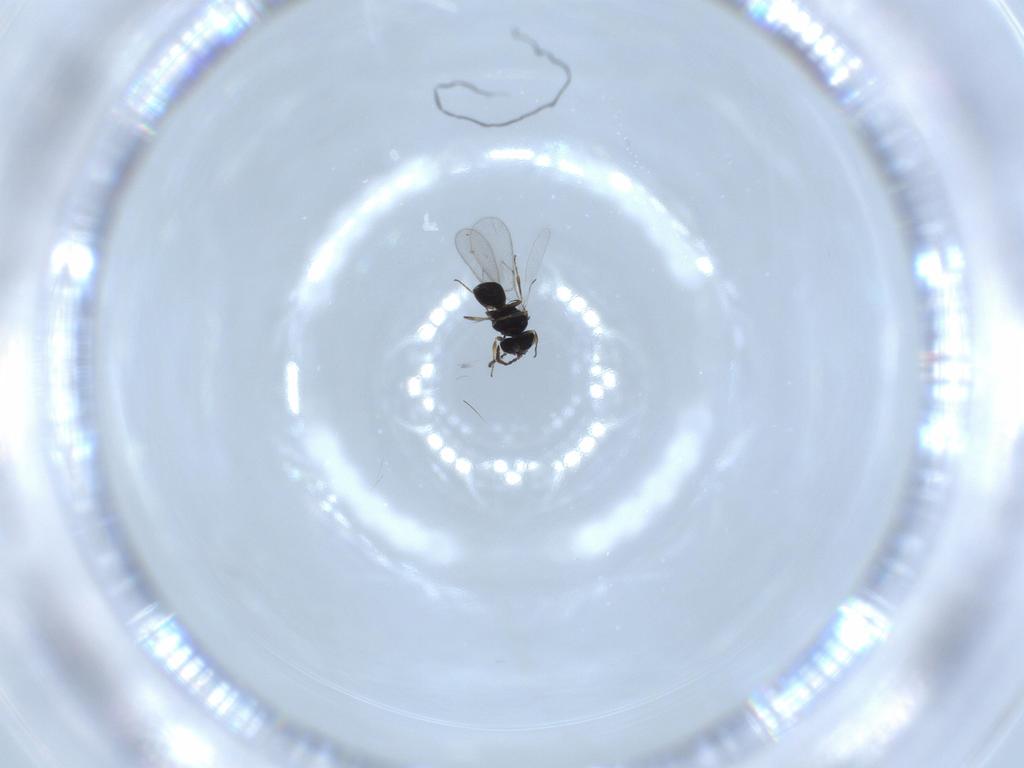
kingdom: Animalia
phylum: Arthropoda
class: Insecta
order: Hymenoptera
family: Scelionidae
